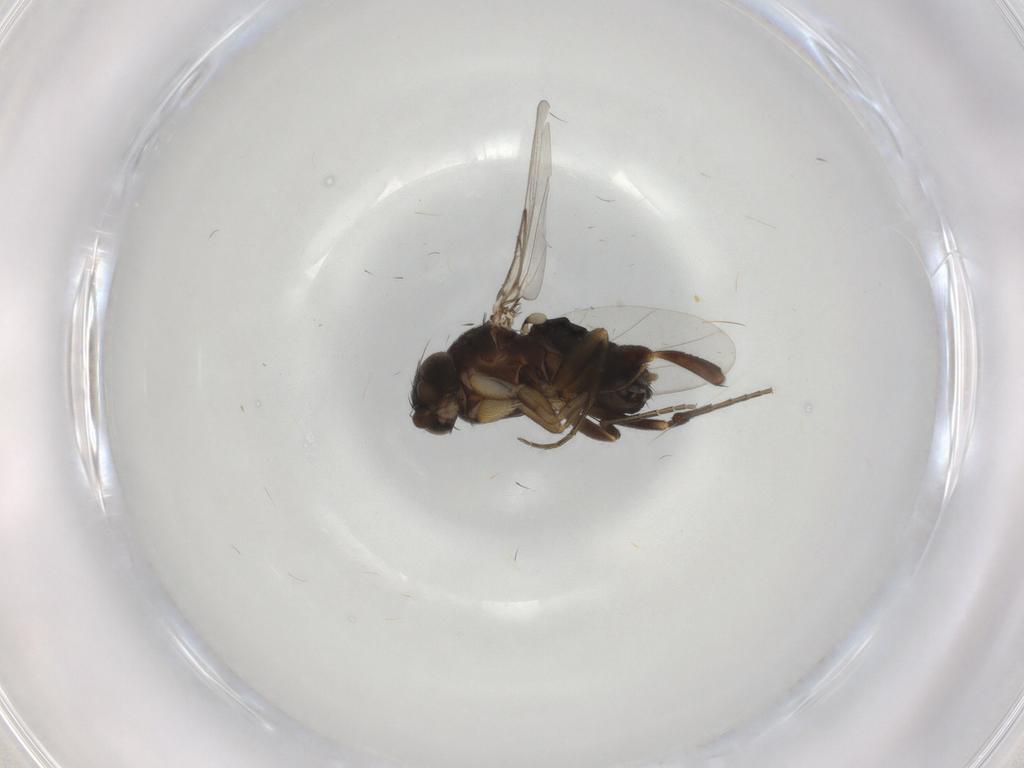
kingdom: Animalia
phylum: Arthropoda
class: Insecta
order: Diptera
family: Phoridae
